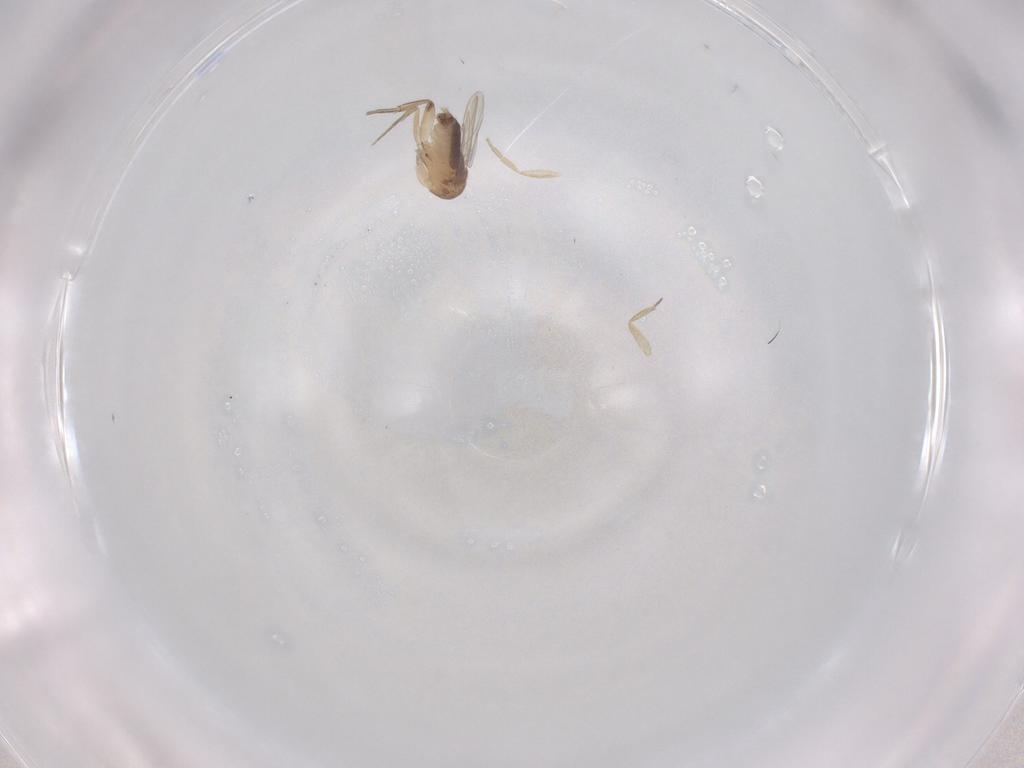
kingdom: Animalia
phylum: Arthropoda
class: Insecta
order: Diptera
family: Phoridae
